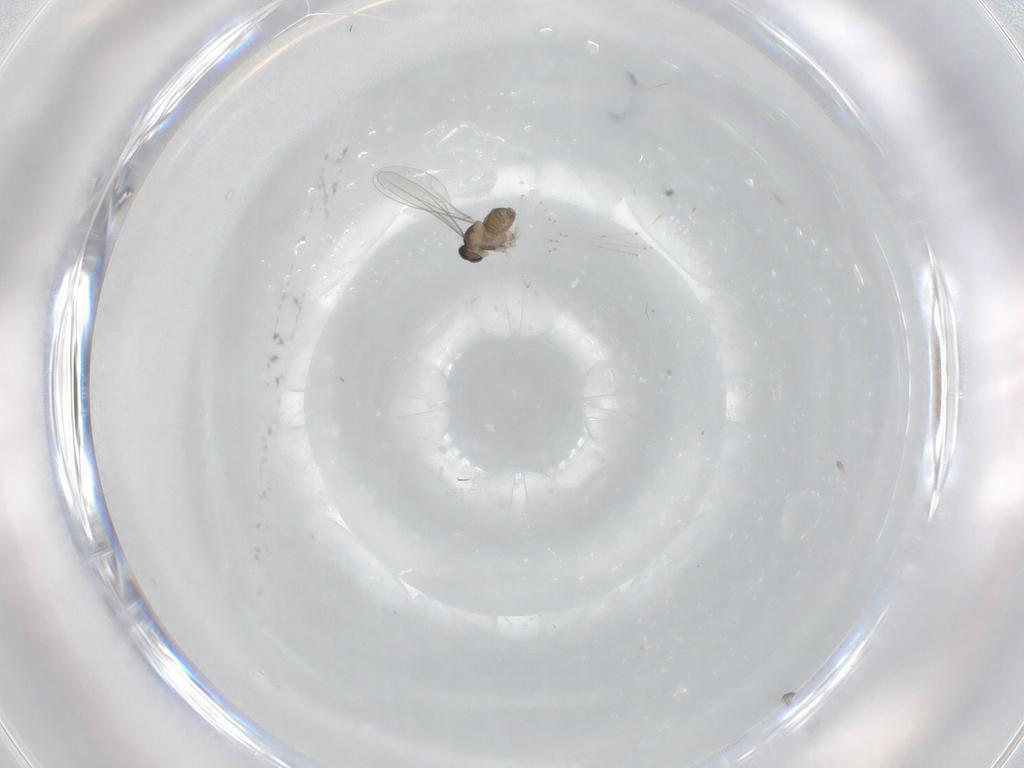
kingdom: Animalia
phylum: Arthropoda
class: Insecta
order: Diptera
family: Cecidomyiidae
